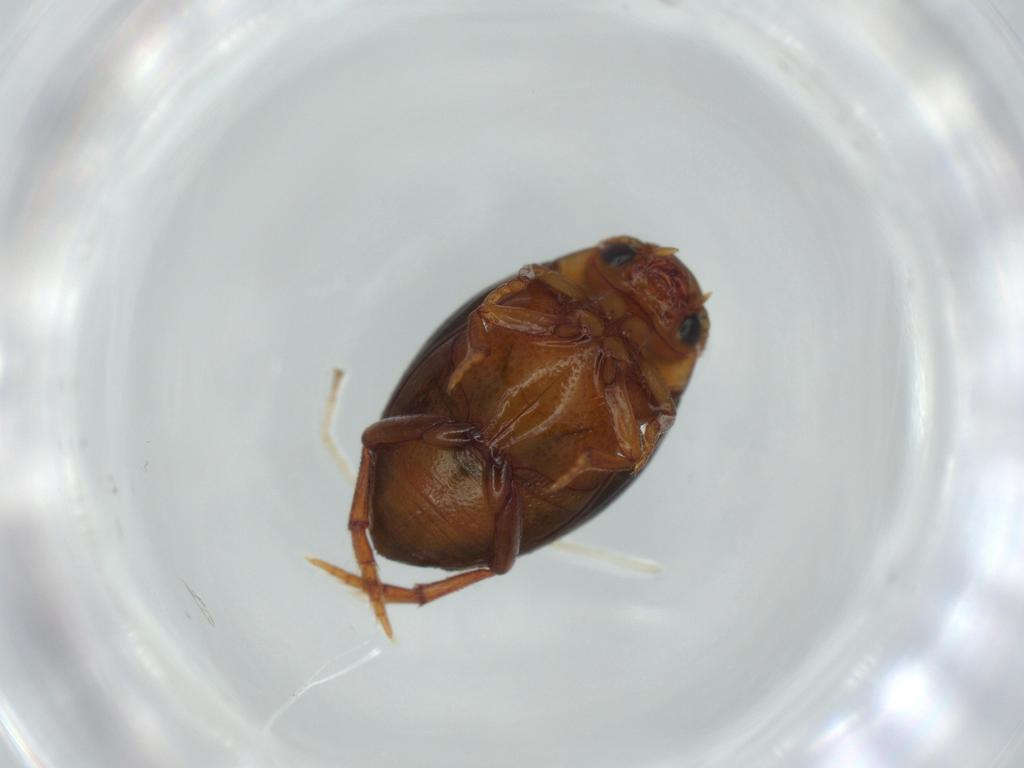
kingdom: Animalia
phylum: Arthropoda
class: Insecta
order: Coleoptera
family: Dytiscidae
